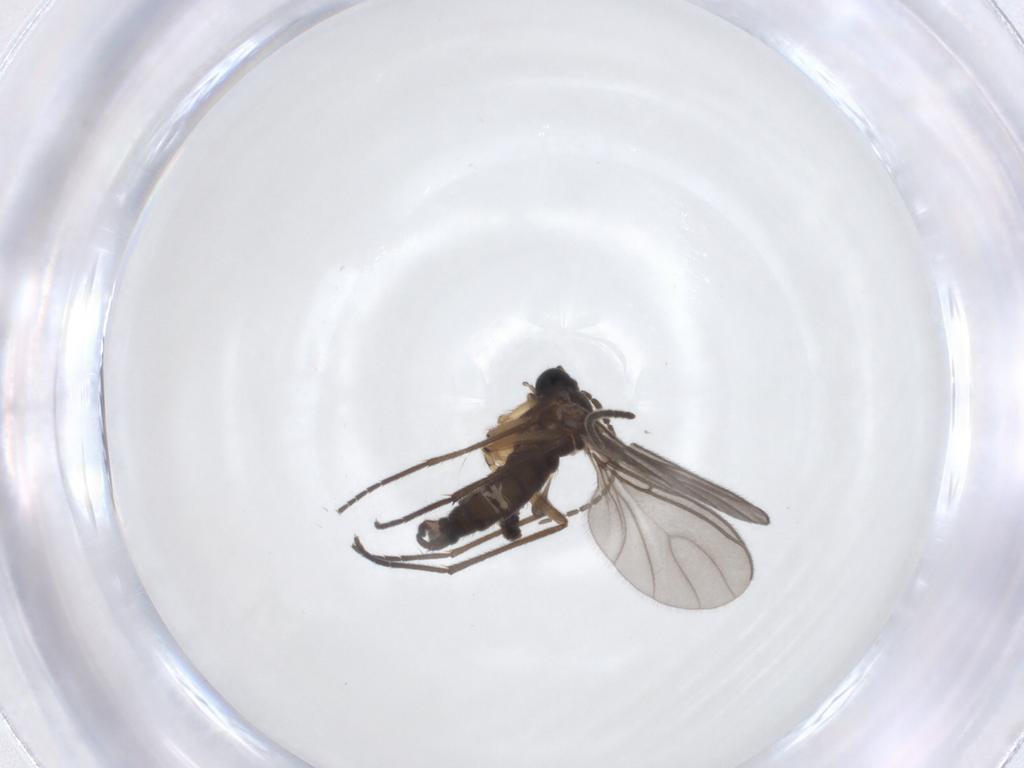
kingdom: Animalia
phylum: Arthropoda
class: Insecta
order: Diptera
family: Sciaridae
